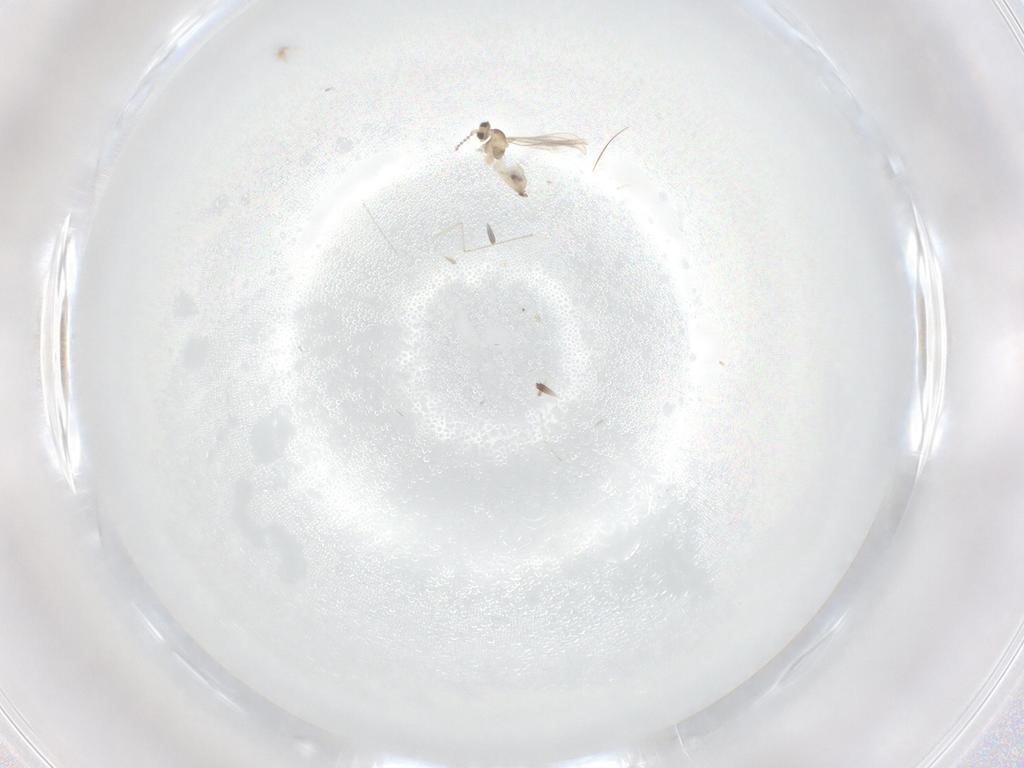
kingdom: Animalia
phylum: Arthropoda
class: Insecta
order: Diptera
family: Cecidomyiidae
